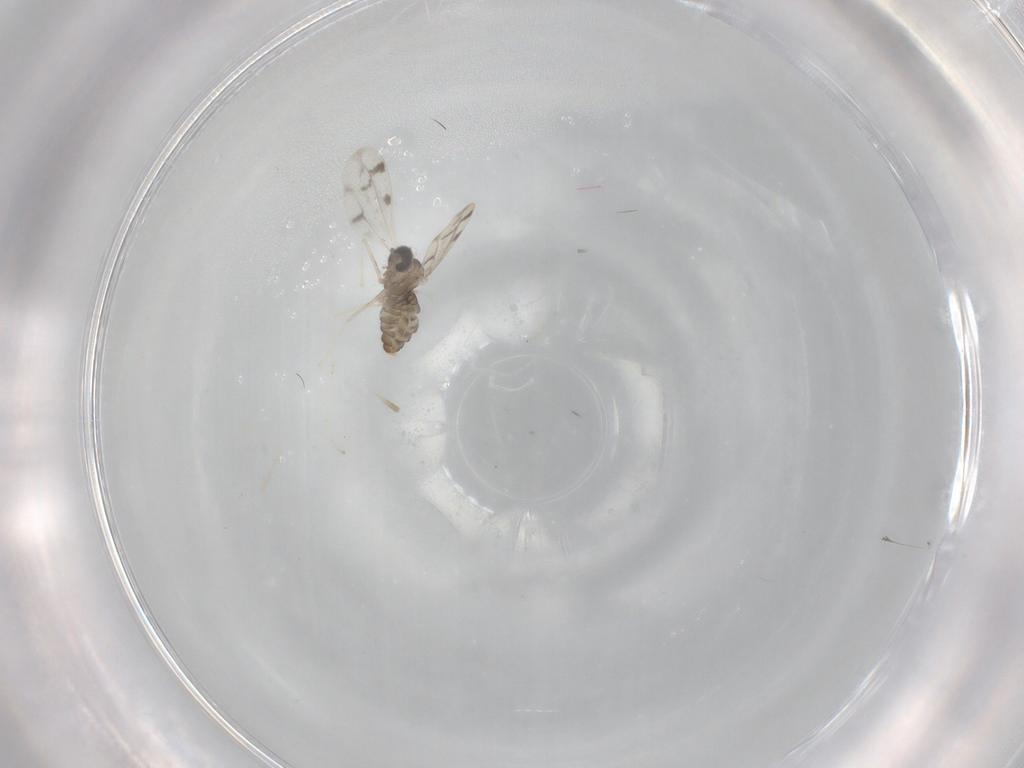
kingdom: Animalia
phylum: Arthropoda
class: Insecta
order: Diptera
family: Cecidomyiidae
